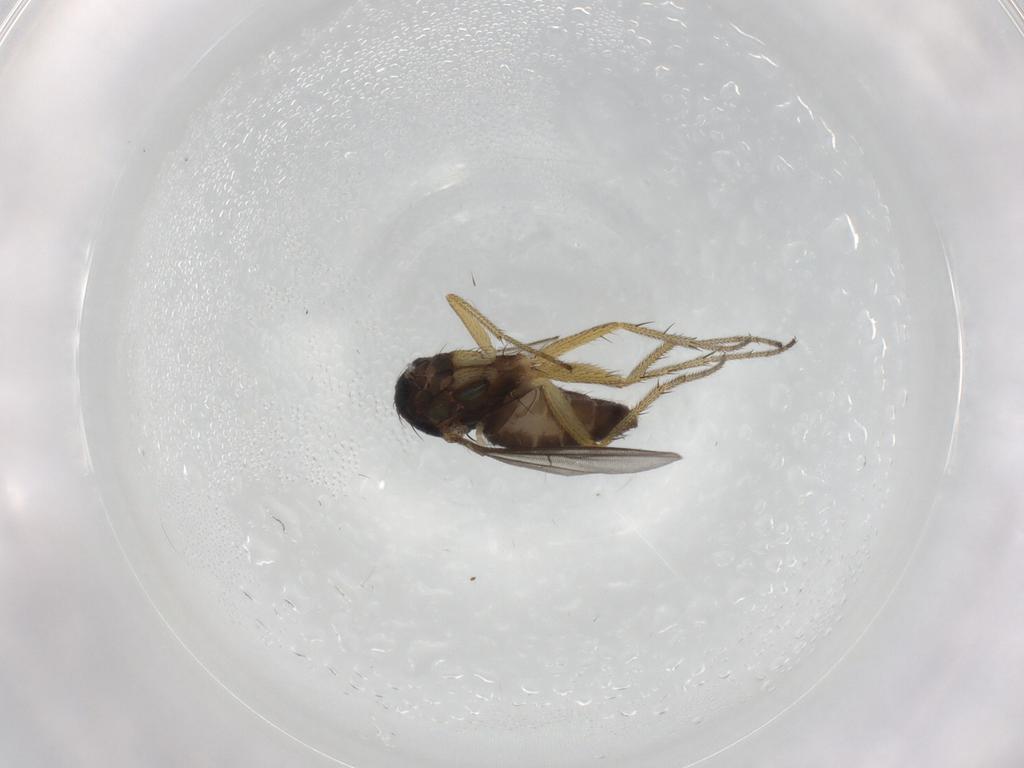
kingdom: Animalia
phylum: Arthropoda
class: Insecta
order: Diptera
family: Dolichopodidae
